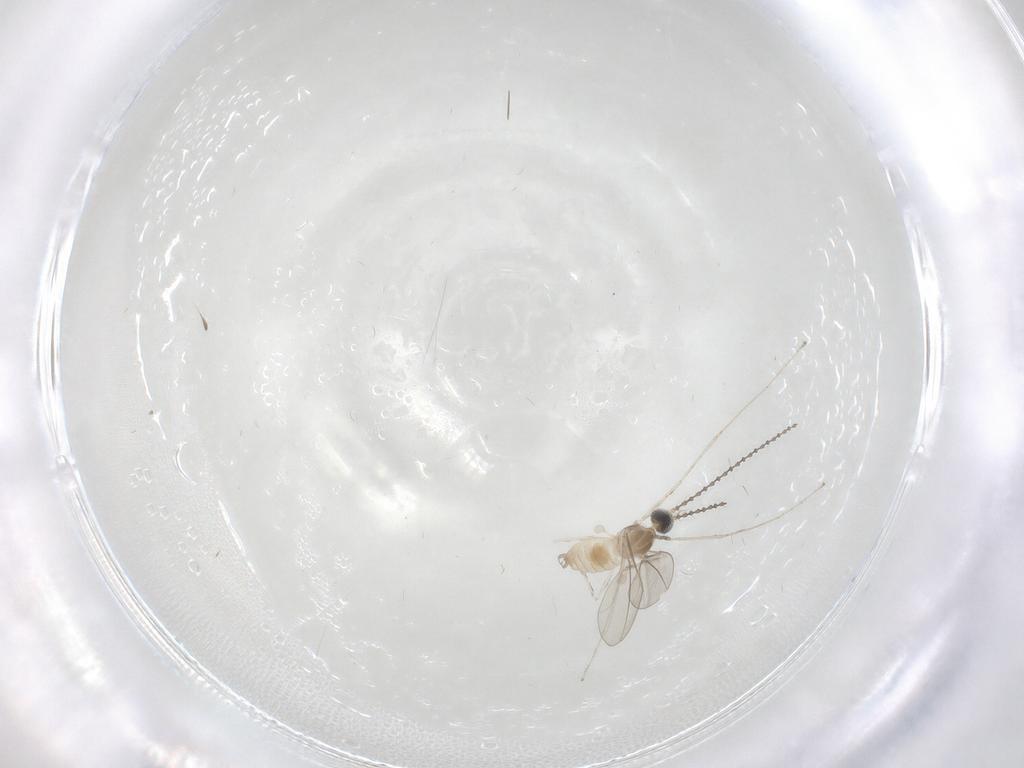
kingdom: Animalia
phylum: Arthropoda
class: Insecta
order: Diptera
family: Cecidomyiidae
